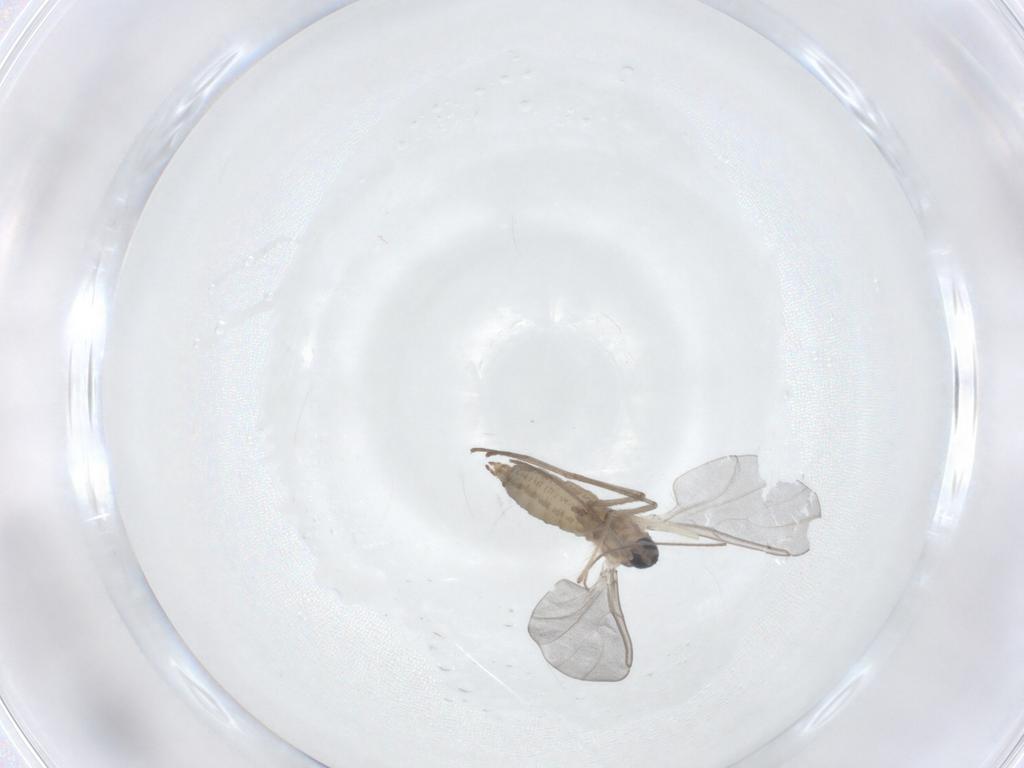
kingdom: Animalia
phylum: Arthropoda
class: Insecta
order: Diptera
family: Cecidomyiidae
